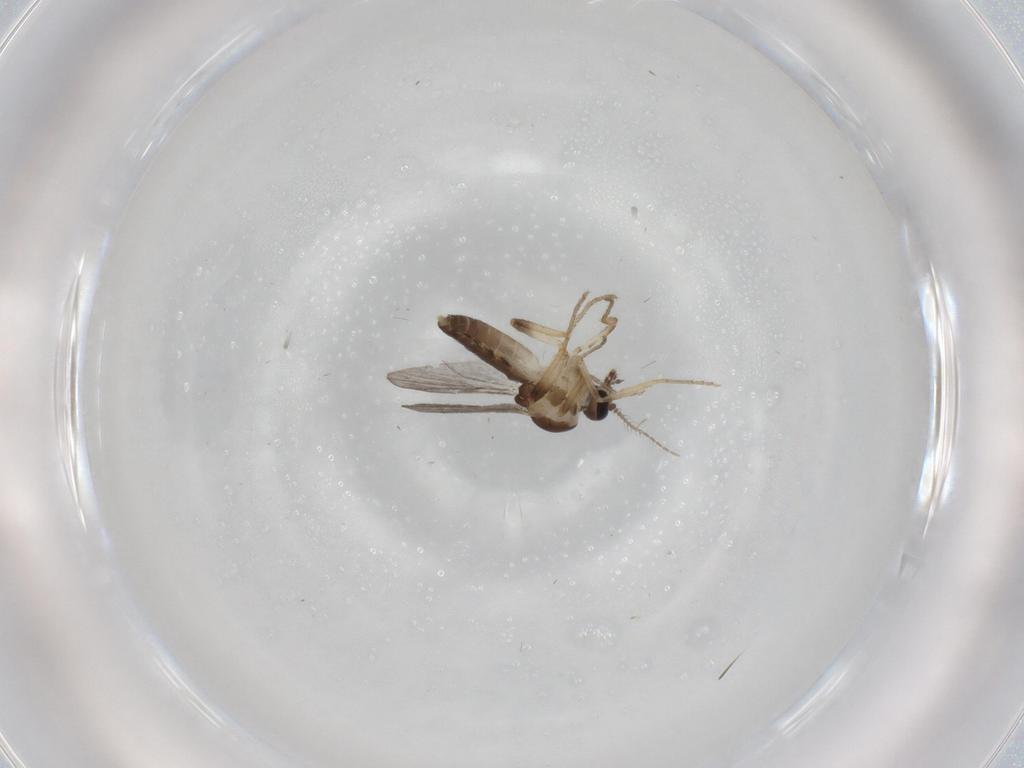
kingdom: Animalia
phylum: Arthropoda
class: Insecta
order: Diptera
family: Ceratopogonidae
